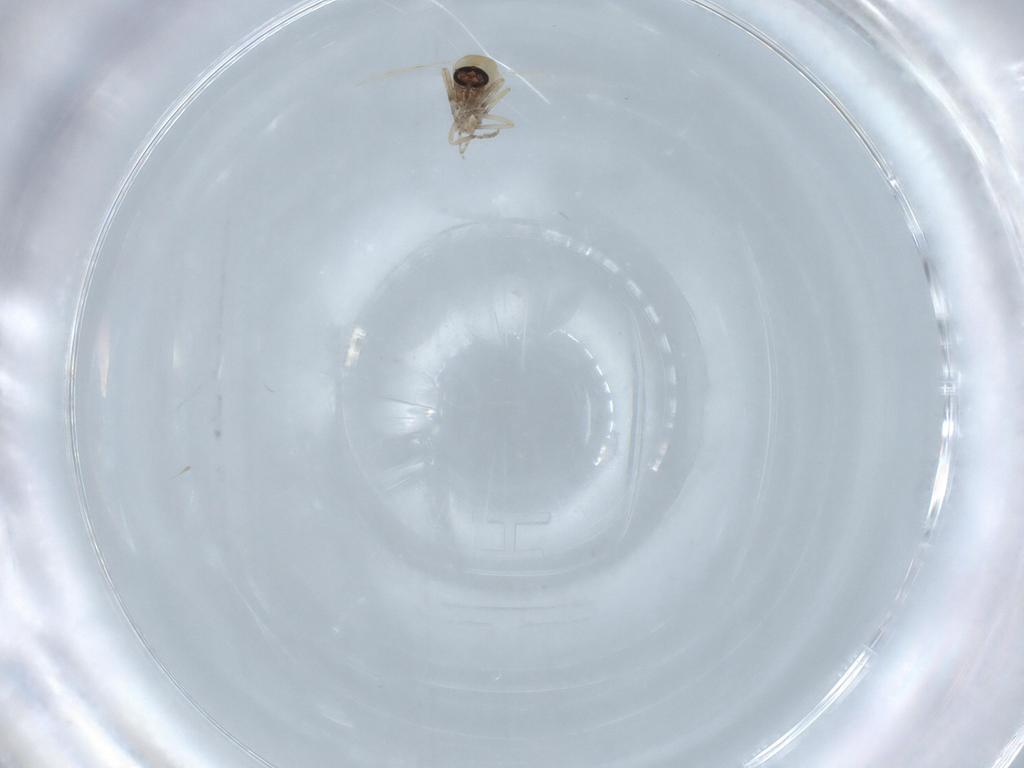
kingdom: Animalia
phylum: Arthropoda
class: Insecta
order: Diptera
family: Ceratopogonidae
